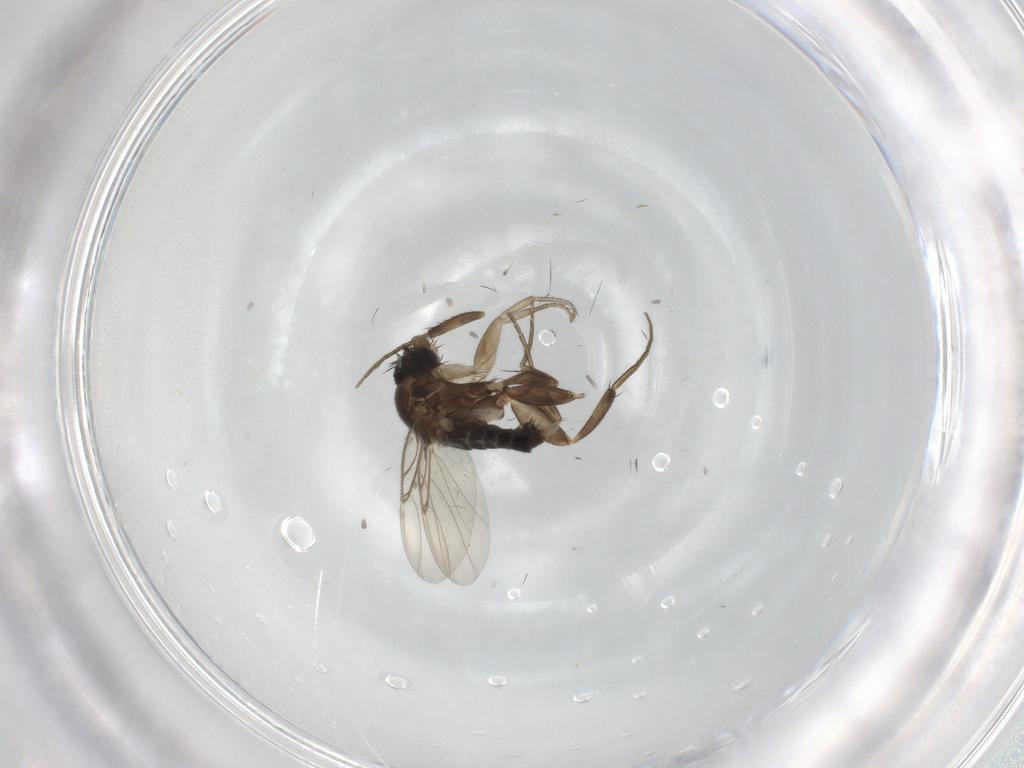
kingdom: Animalia
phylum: Arthropoda
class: Insecta
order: Diptera
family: Phoridae
